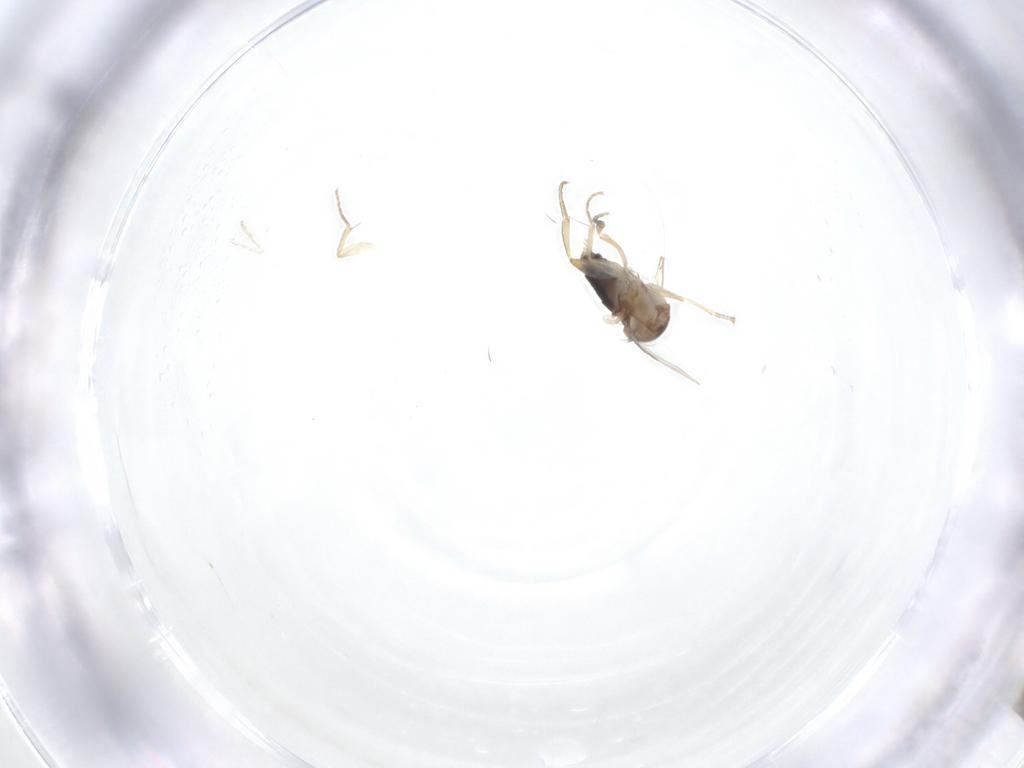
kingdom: Animalia
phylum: Arthropoda
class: Insecta
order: Diptera
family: Phoridae
